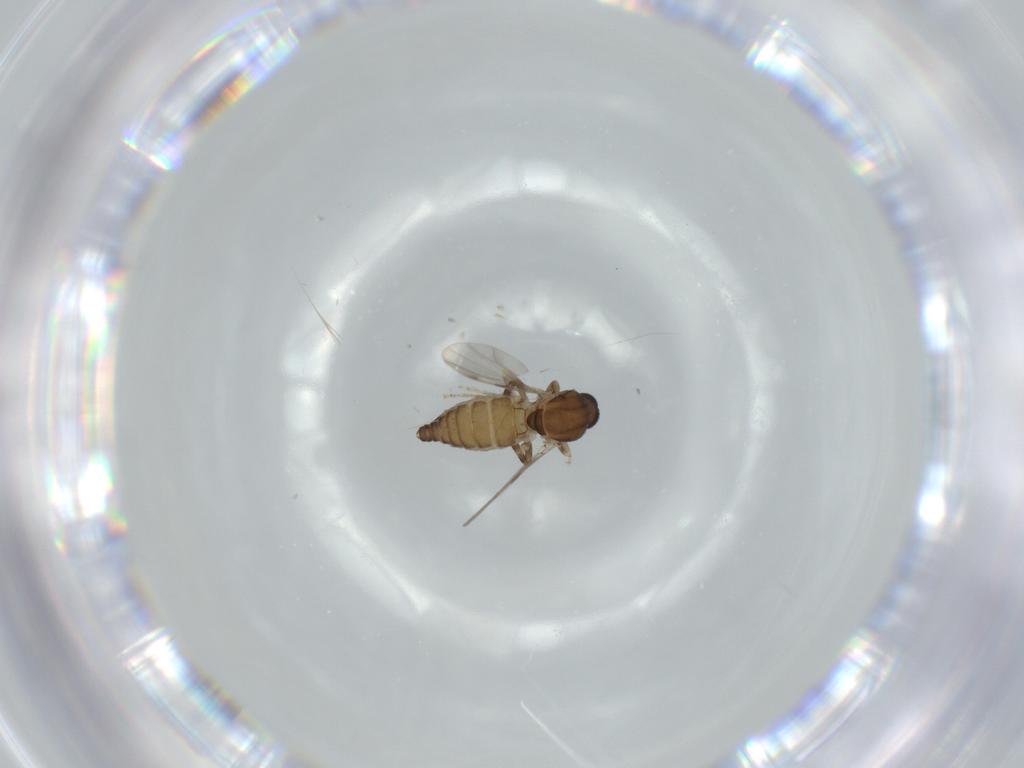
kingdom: Animalia
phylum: Arthropoda
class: Insecta
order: Diptera
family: Ceratopogonidae
